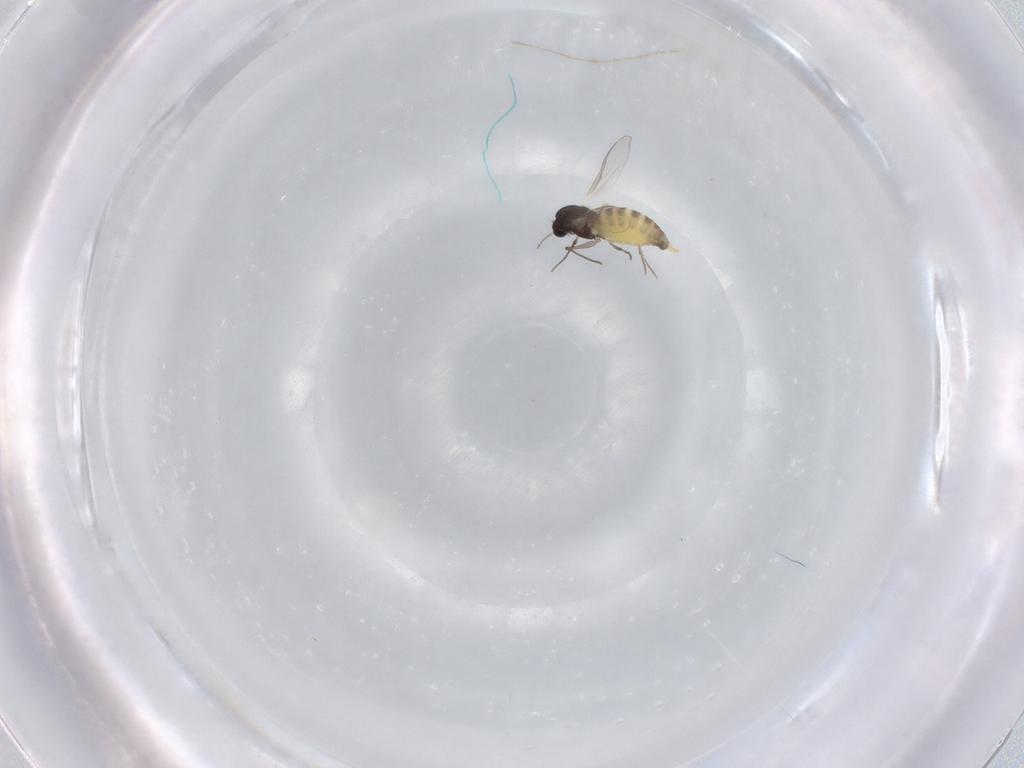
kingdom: Animalia
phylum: Arthropoda
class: Insecta
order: Diptera
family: Chironomidae
